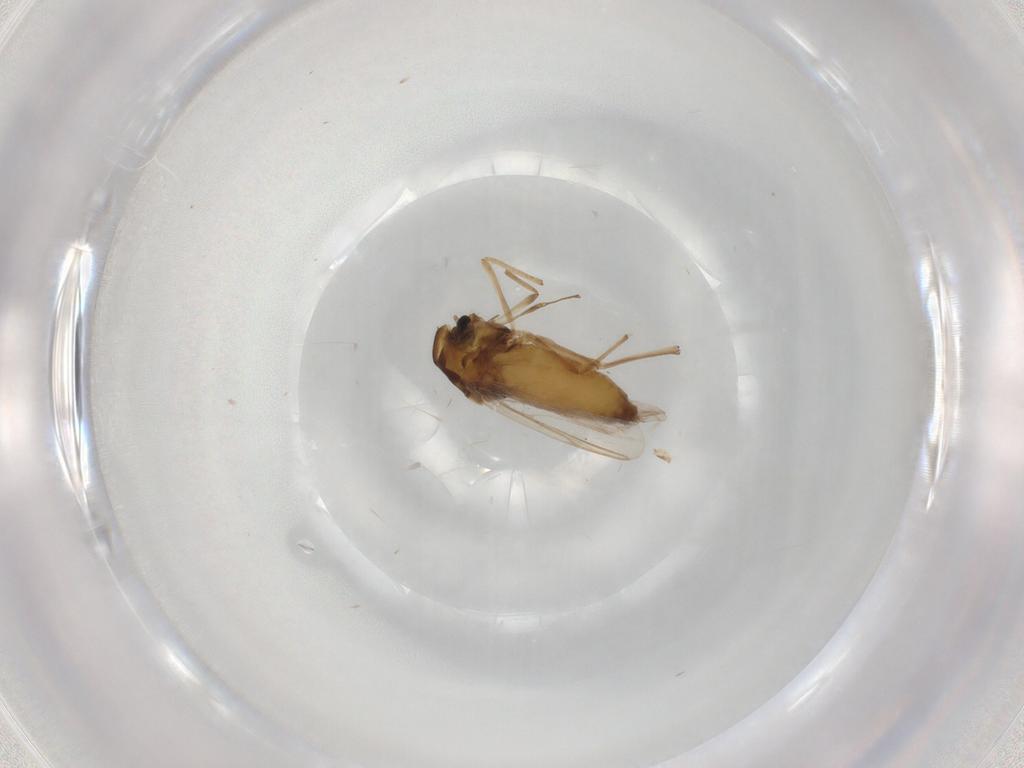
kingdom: Animalia
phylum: Arthropoda
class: Insecta
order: Diptera
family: Chironomidae
